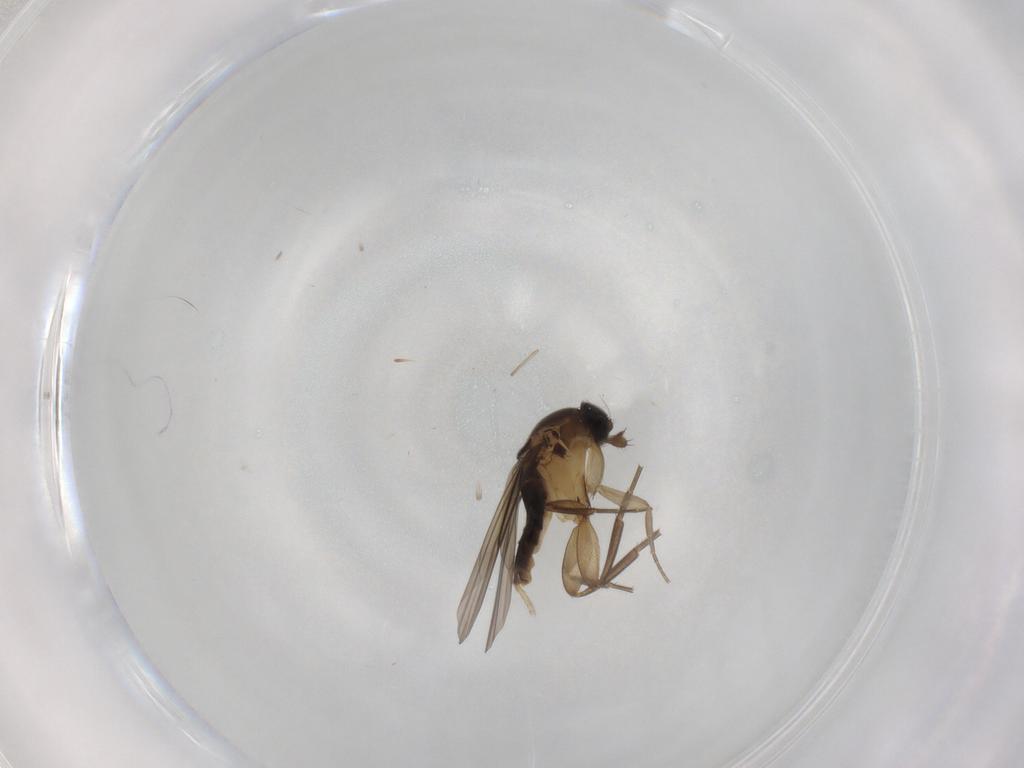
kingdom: Animalia
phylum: Arthropoda
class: Insecta
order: Diptera
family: Phoridae
